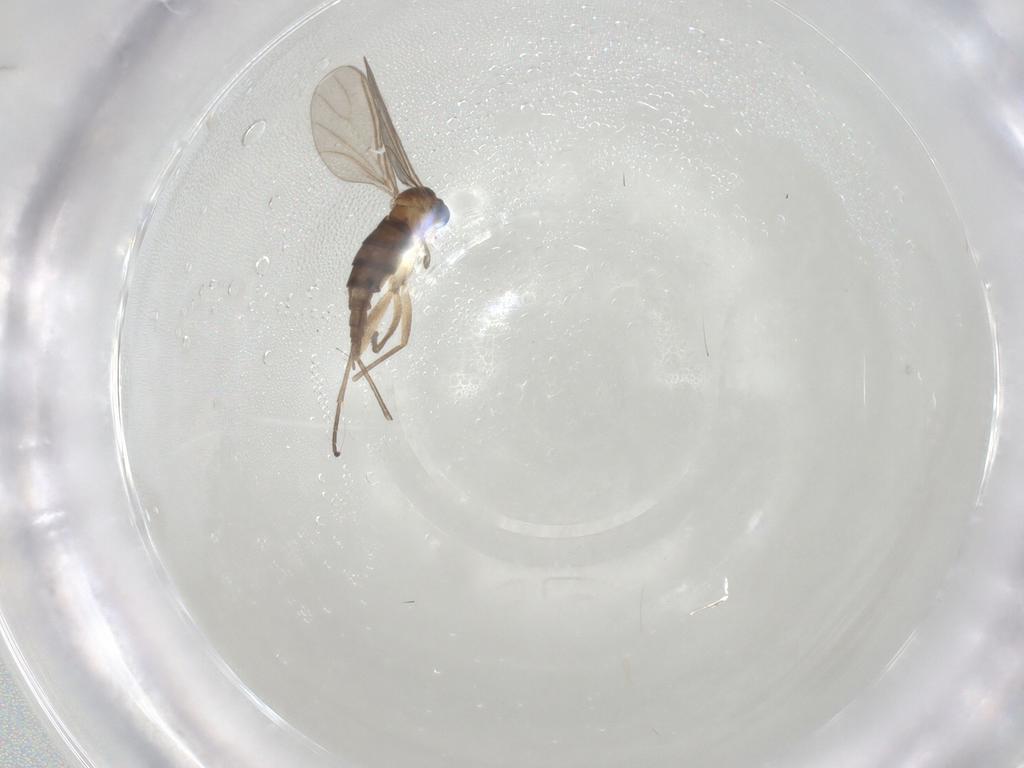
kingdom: Animalia
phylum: Arthropoda
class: Insecta
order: Diptera
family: Sciaridae
